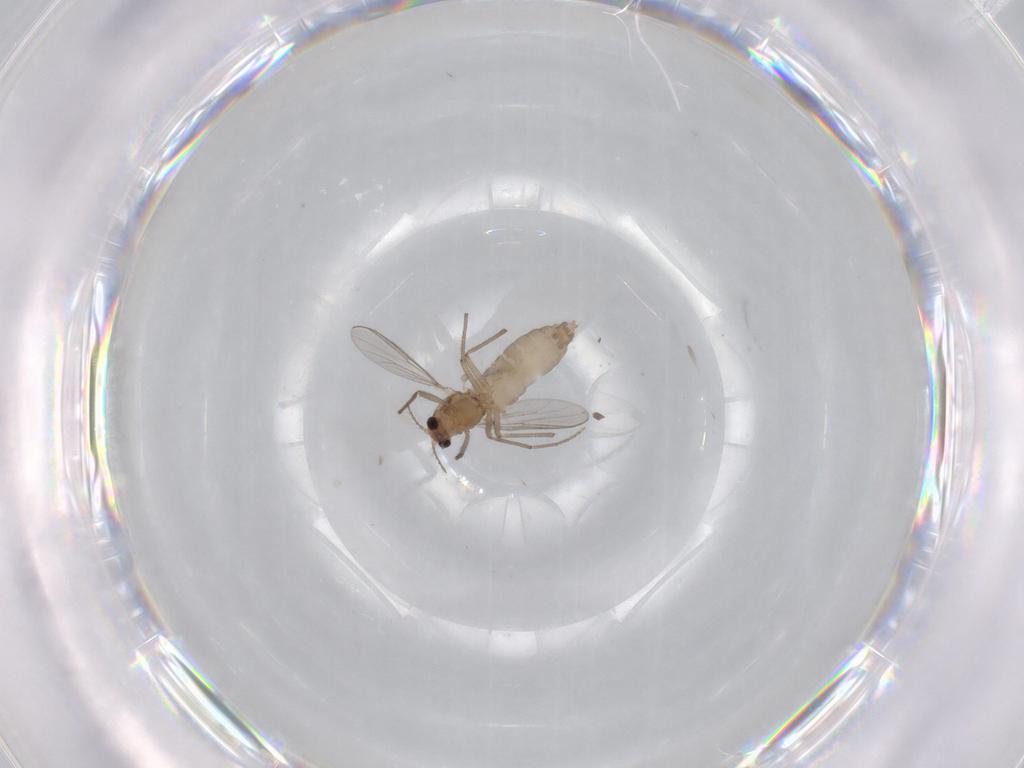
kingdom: Animalia
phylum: Arthropoda
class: Insecta
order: Diptera
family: Chironomidae
